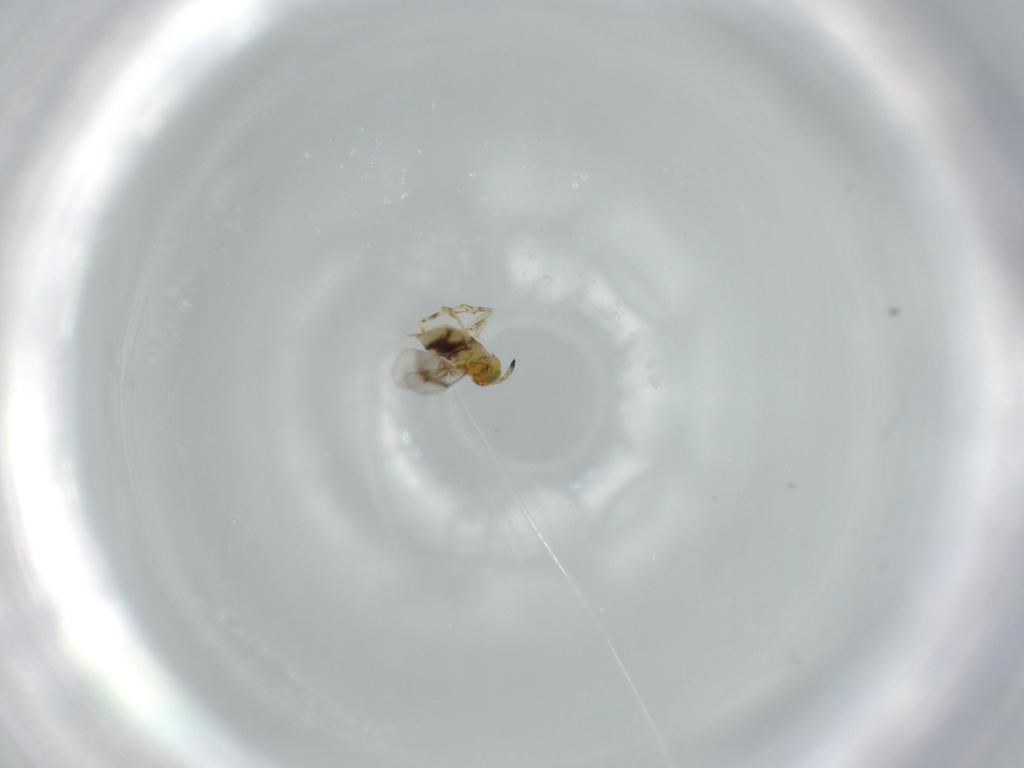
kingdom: Animalia
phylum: Arthropoda
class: Insecta
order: Hymenoptera
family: Aphelinidae
